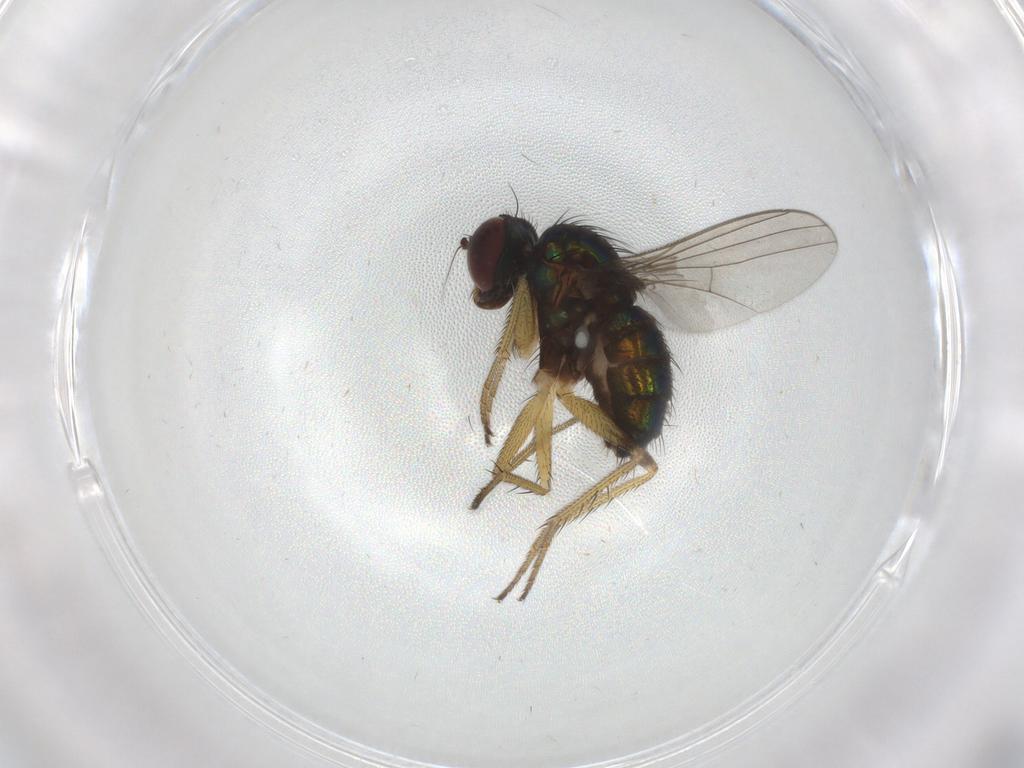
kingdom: Animalia
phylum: Arthropoda
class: Insecta
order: Diptera
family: Dolichopodidae
